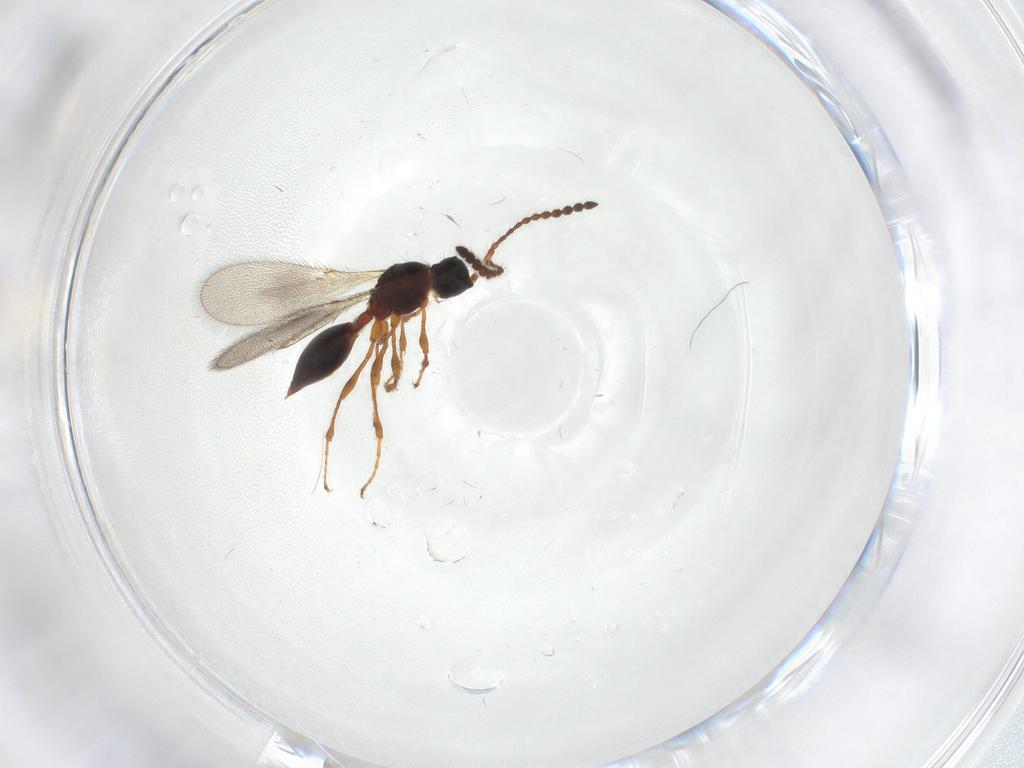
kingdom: Animalia
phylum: Arthropoda
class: Insecta
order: Hymenoptera
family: Diapriidae
